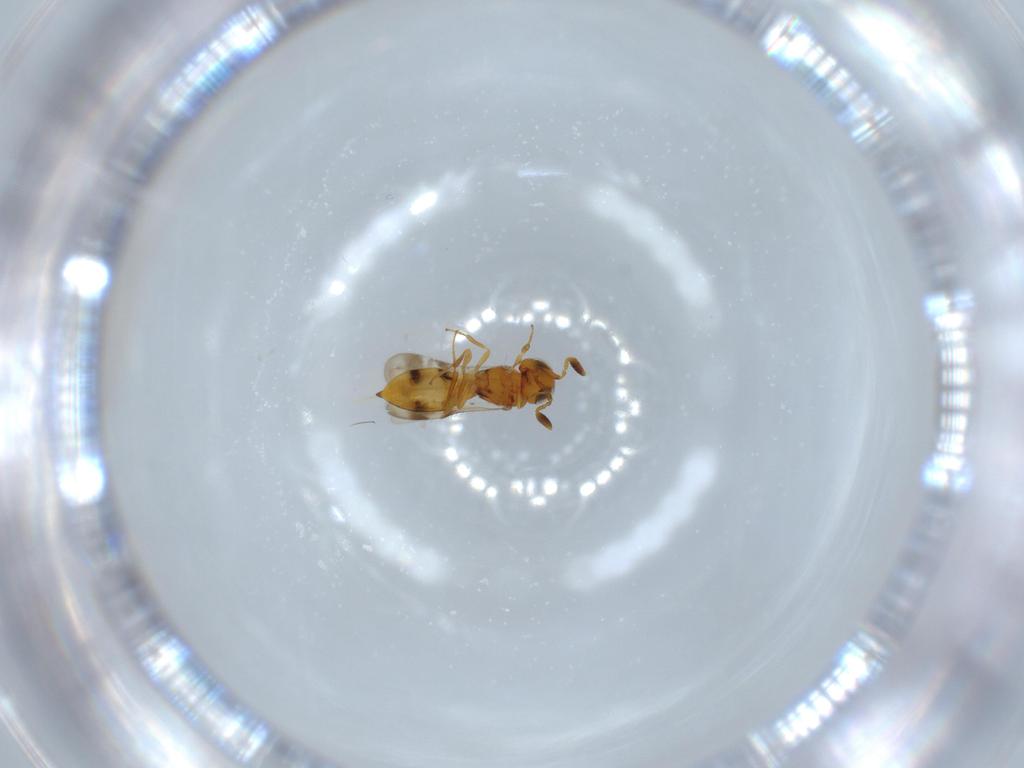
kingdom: Animalia
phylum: Arthropoda
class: Insecta
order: Hymenoptera
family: Scelionidae
